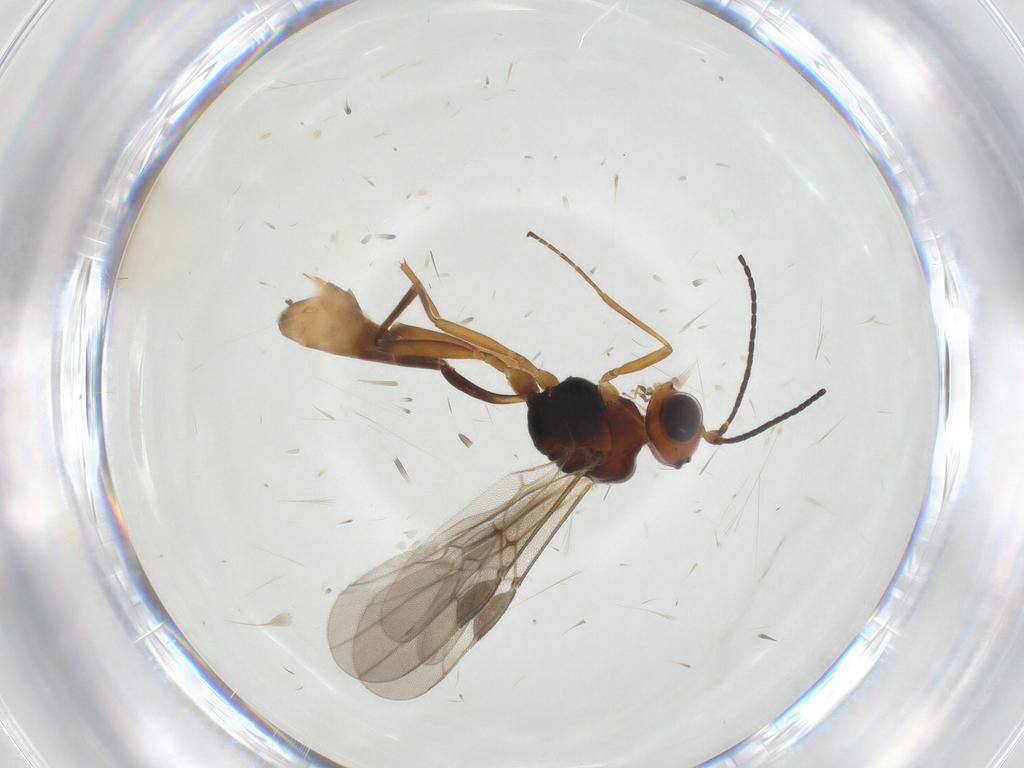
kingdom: Animalia
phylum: Arthropoda
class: Insecta
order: Hymenoptera
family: Braconidae
